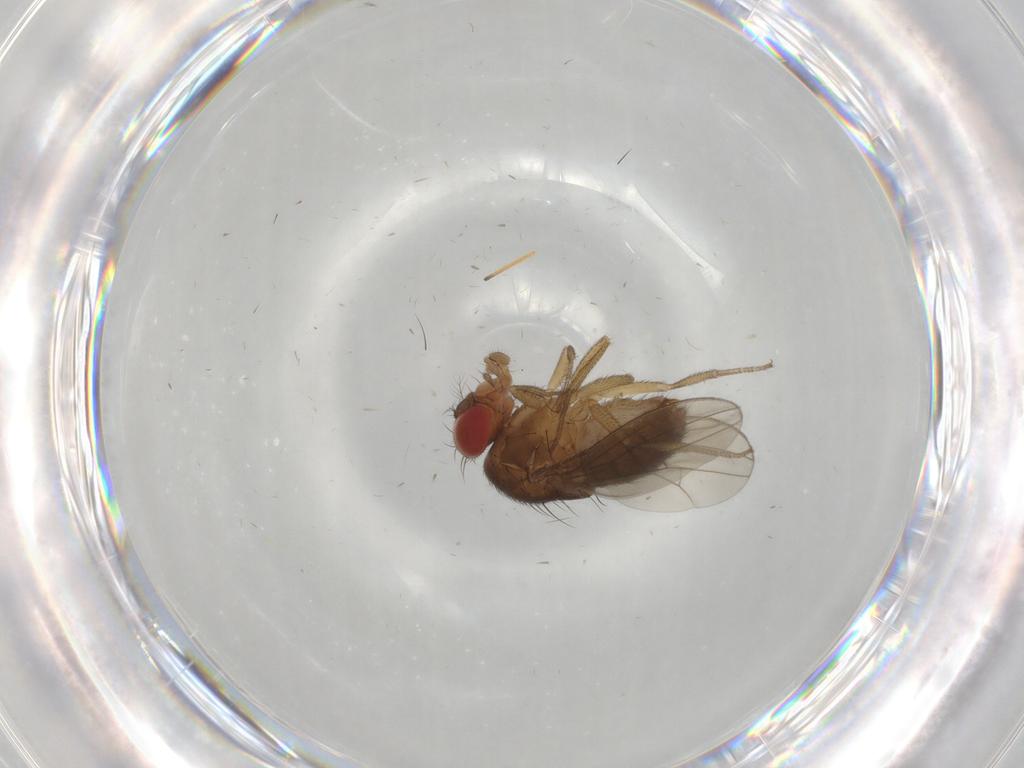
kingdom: Animalia
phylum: Arthropoda
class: Insecta
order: Diptera
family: Drosophilidae
